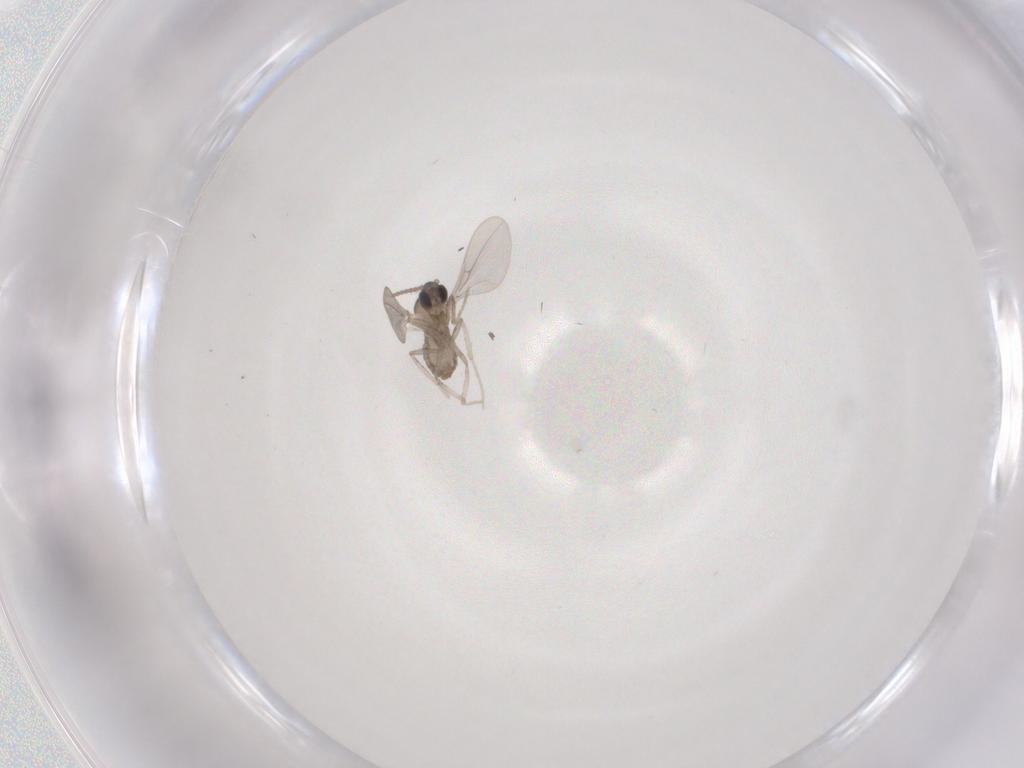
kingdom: Animalia
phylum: Arthropoda
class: Insecta
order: Diptera
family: Cecidomyiidae
